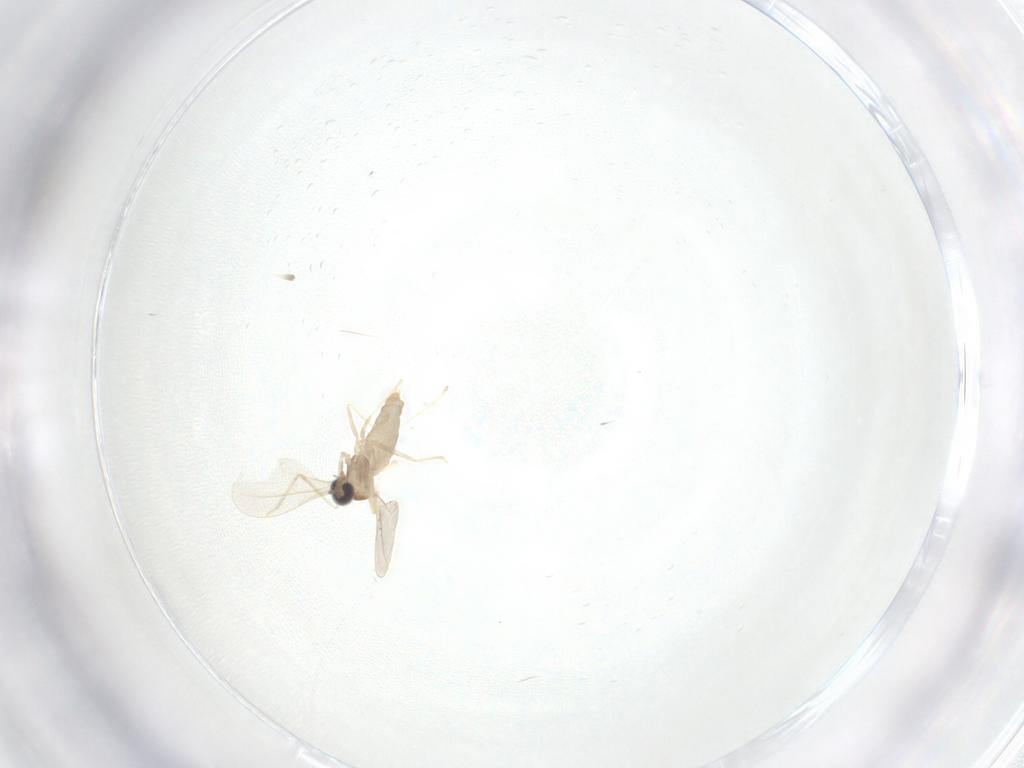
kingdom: Animalia
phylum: Arthropoda
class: Insecta
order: Diptera
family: Cecidomyiidae
